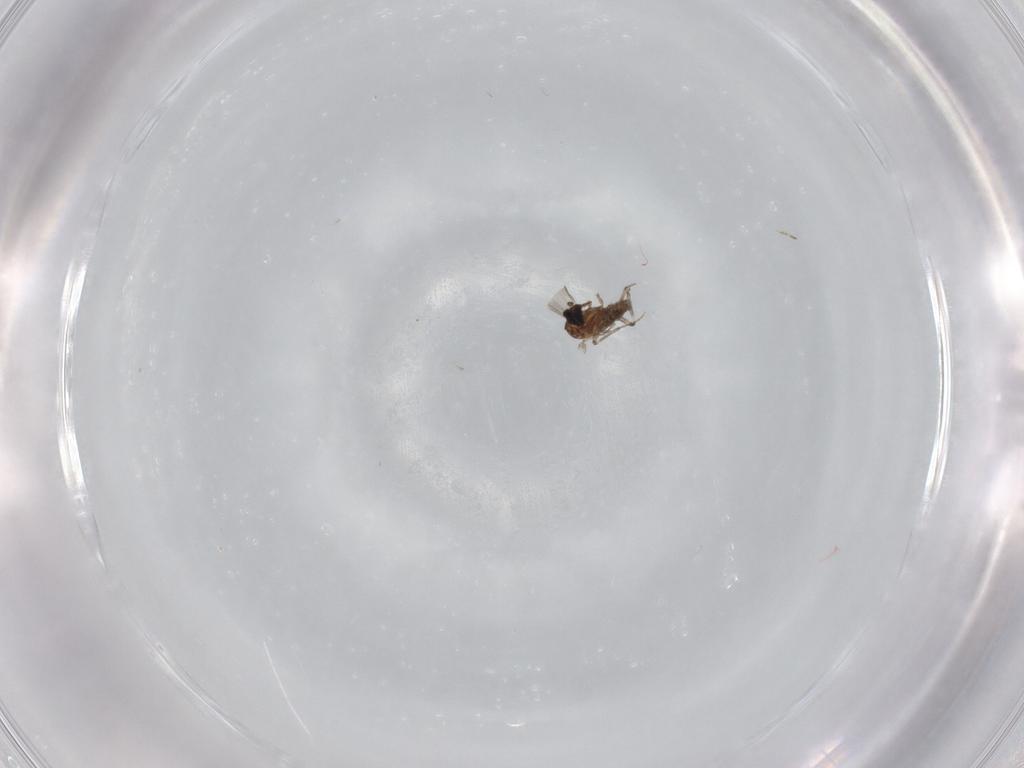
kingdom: Animalia
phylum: Arthropoda
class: Insecta
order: Diptera
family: Ceratopogonidae
